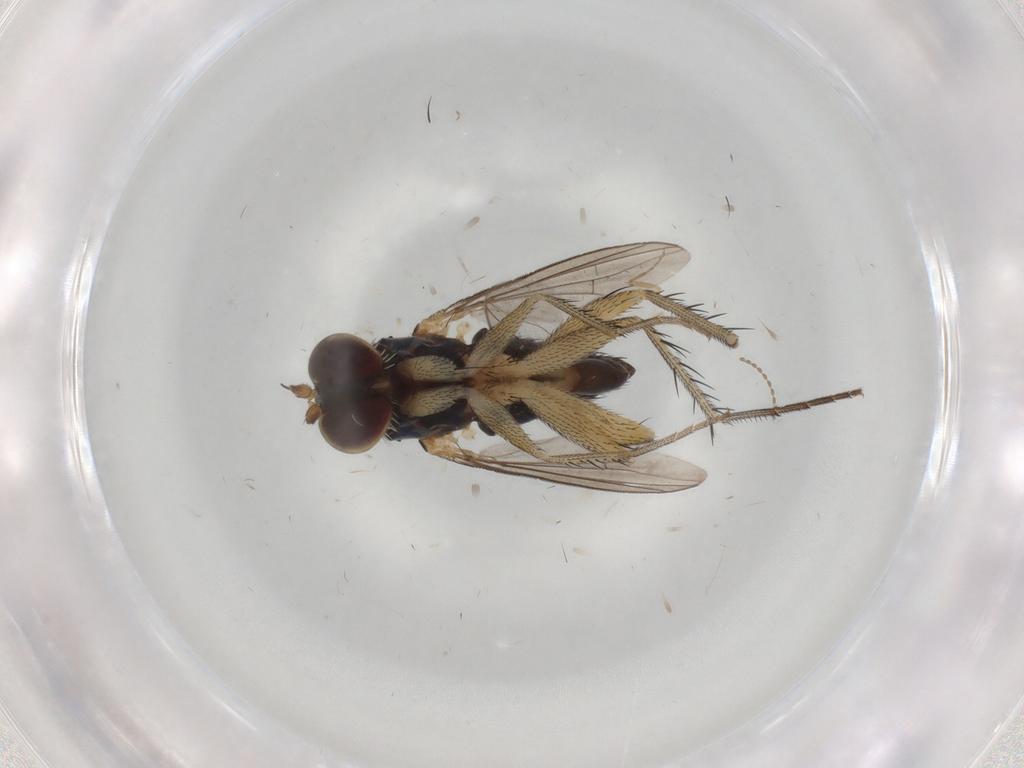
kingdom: Animalia
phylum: Arthropoda
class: Insecta
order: Diptera
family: Dolichopodidae
